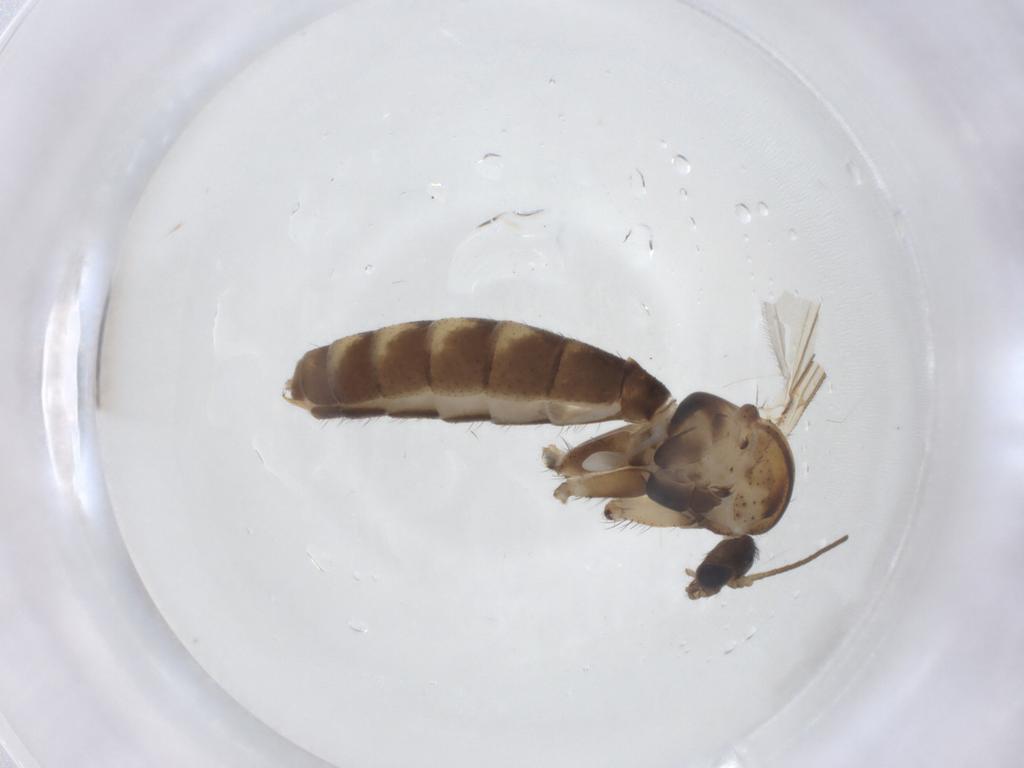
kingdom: Animalia
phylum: Arthropoda
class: Insecta
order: Diptera
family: Mycetophilidae
